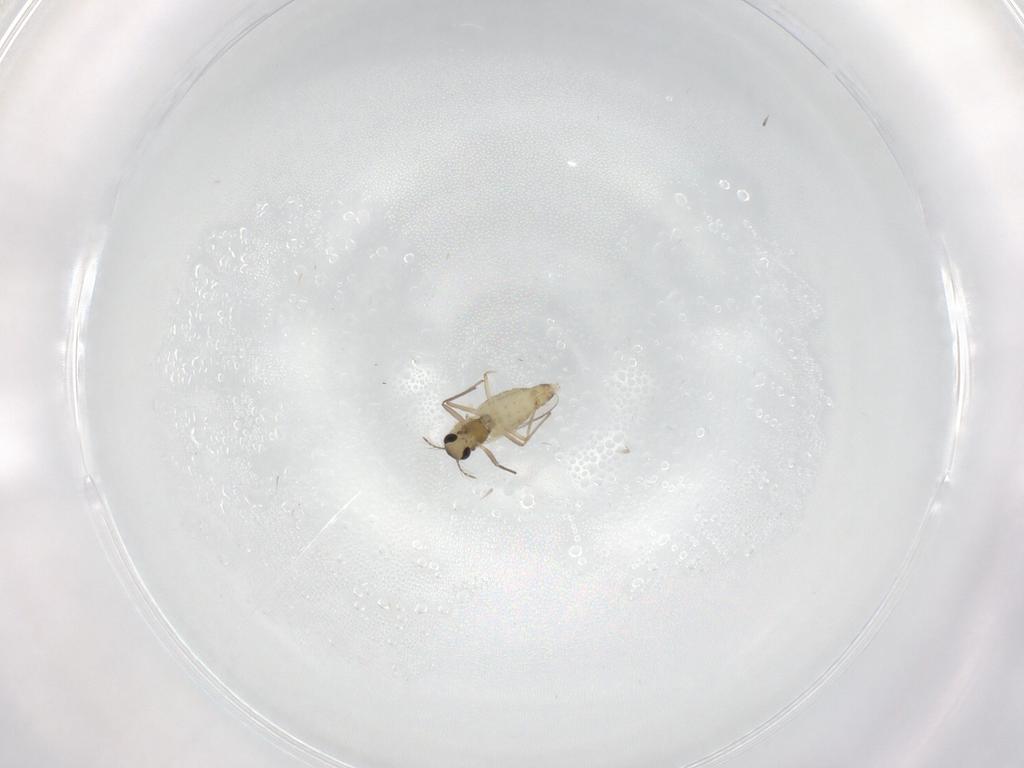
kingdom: Animalia
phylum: Arthropoda
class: Insecta
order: Diptera
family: Chironomidae
